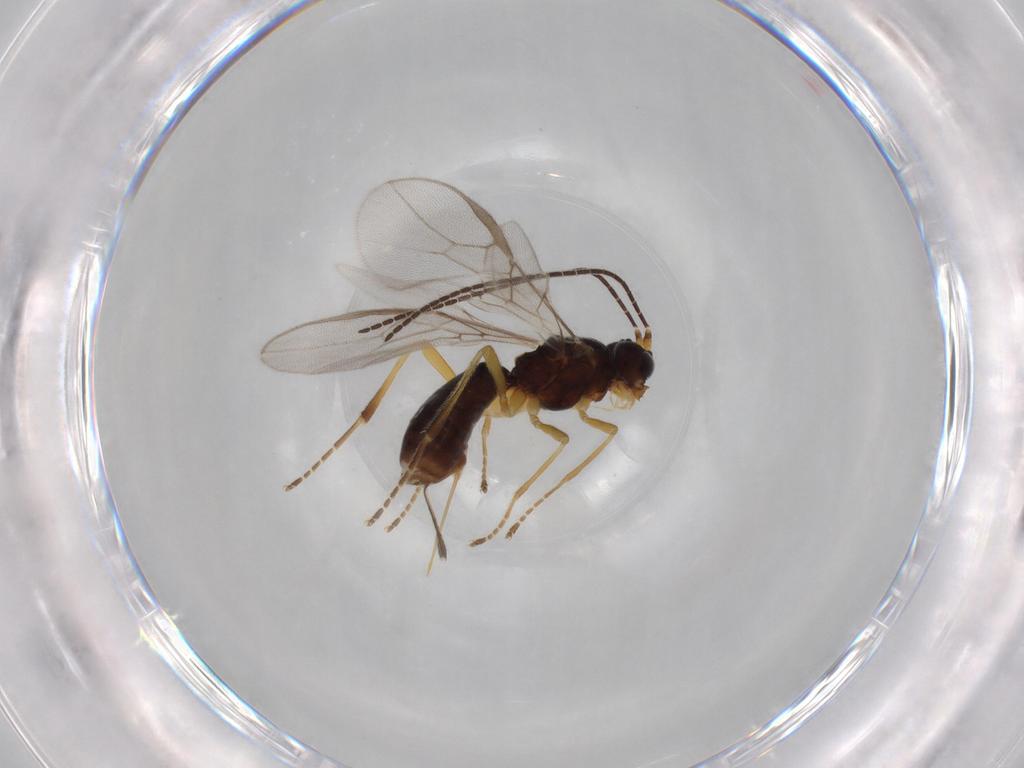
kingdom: Animalia
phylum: Arthropoda
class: Insecta
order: Hymenoptera
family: Braconidae
